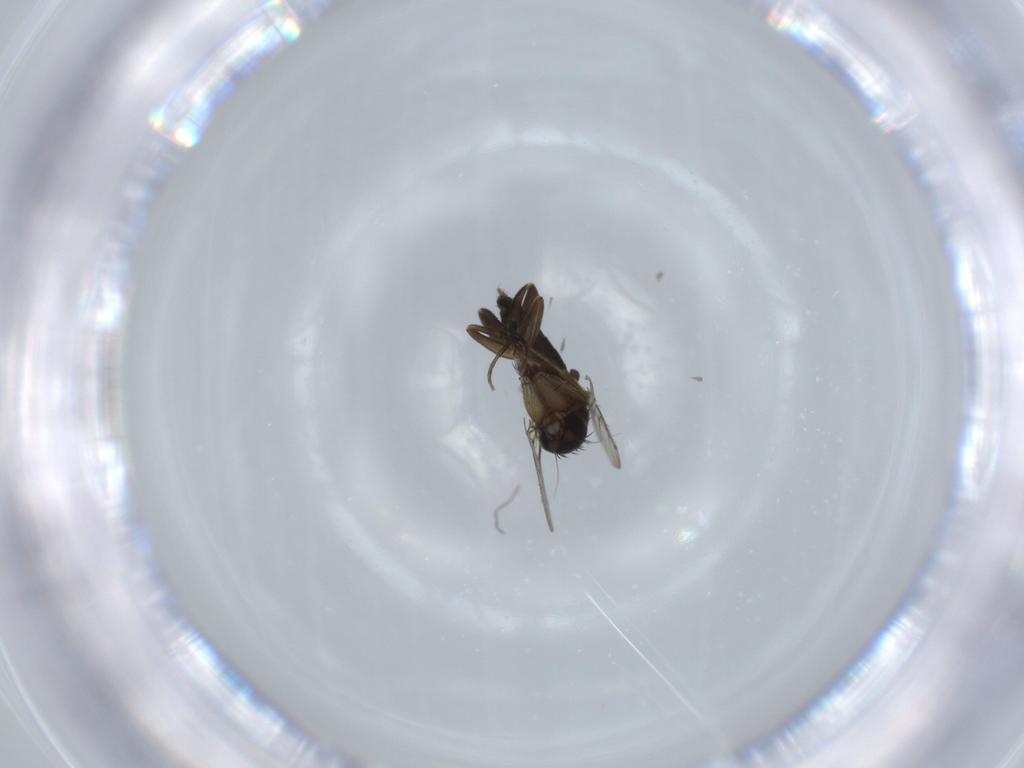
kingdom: Animalia
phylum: Arthropoda
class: Insecta
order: Diptera
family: Phoridae
